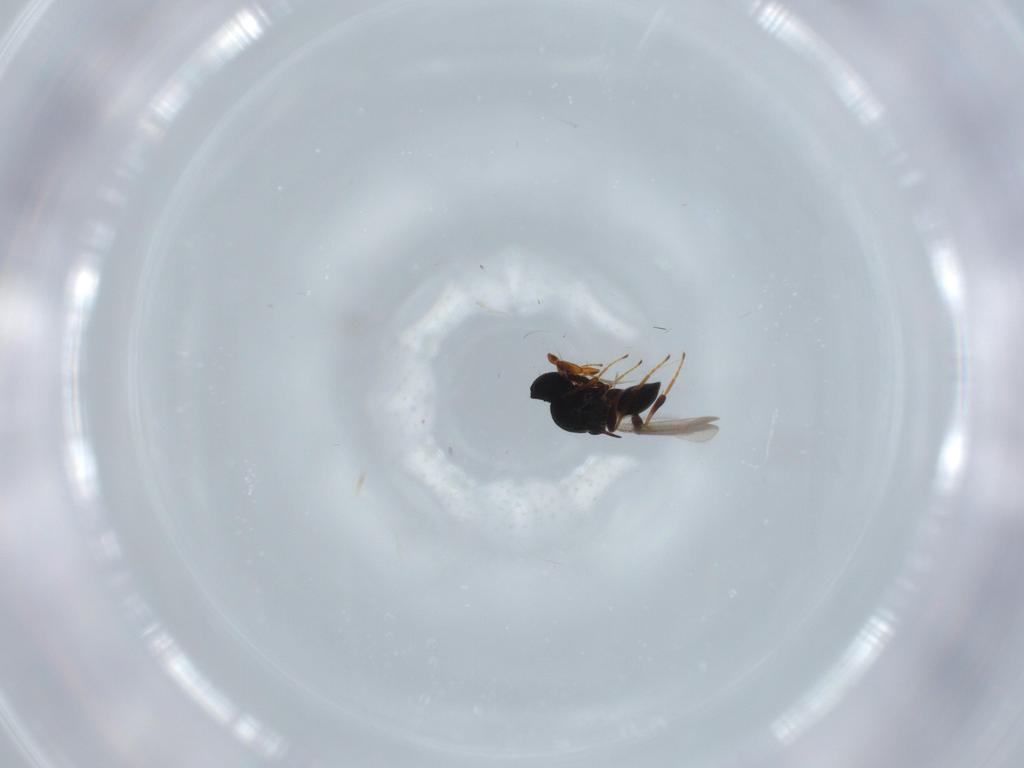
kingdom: Animalia
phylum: Arthropoda
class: Insecta
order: Hymenoptera
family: Platygastridae
